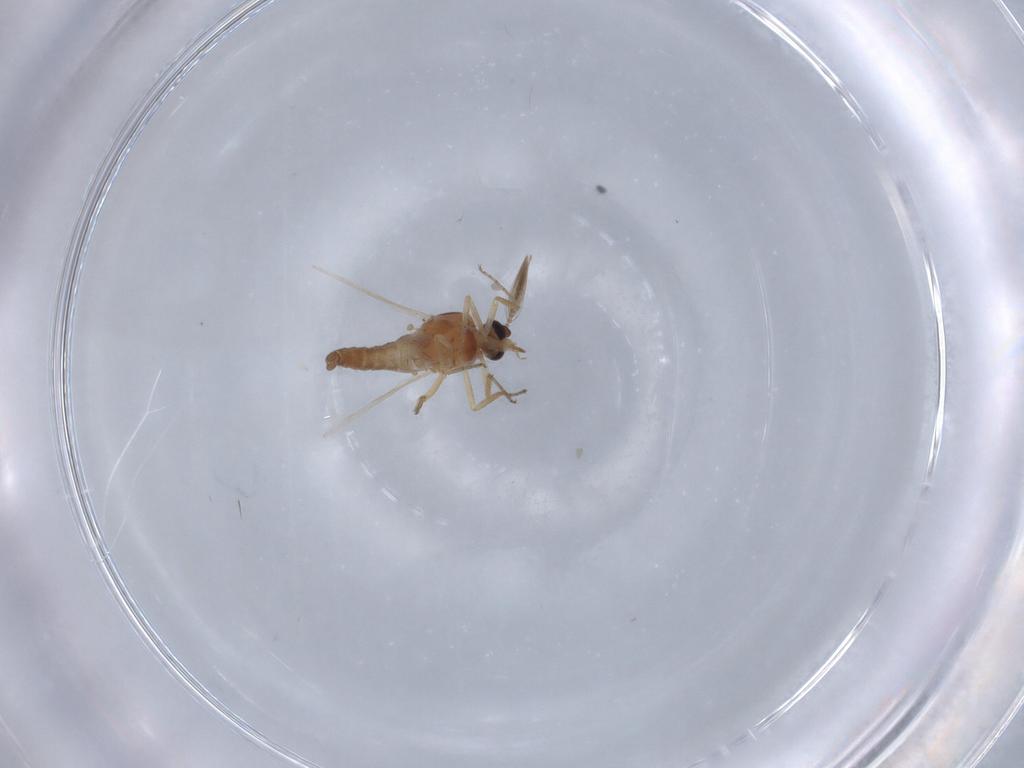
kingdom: Animalia
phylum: Arthropoda
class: Insecta
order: Diptera
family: Ceratopogonidae
